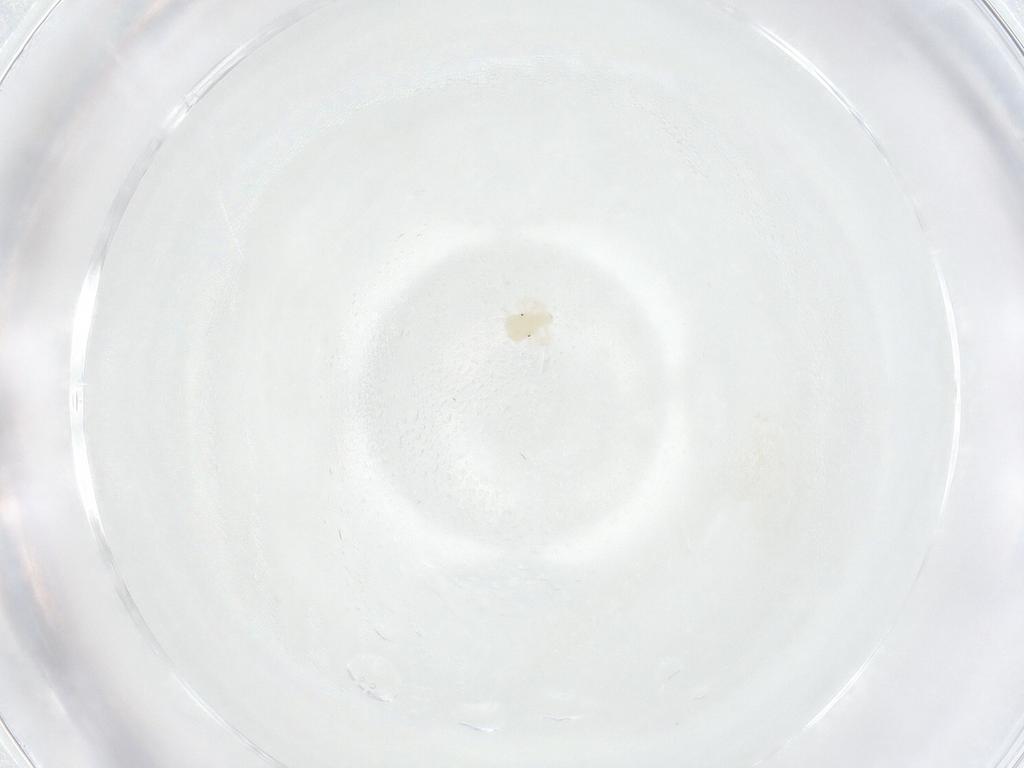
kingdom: Animalia
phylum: Arthropoda
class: Arachnida
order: Trombidiformes
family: Anystidae
